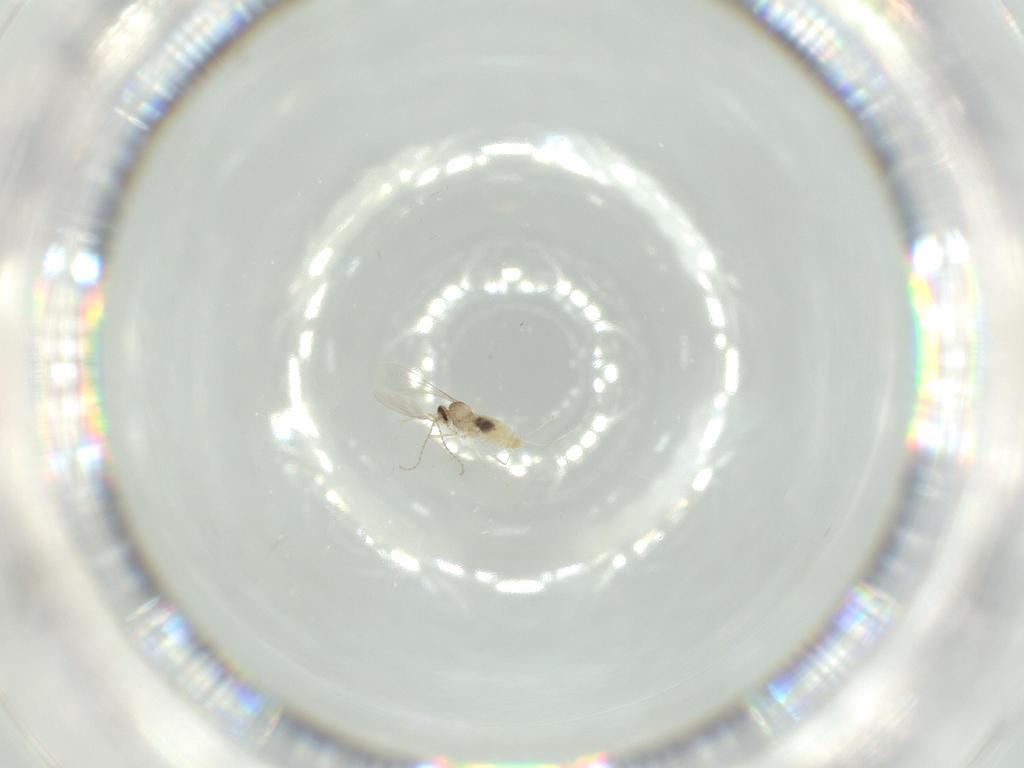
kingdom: Animalia
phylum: Arthropoda
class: Insecta
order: Diptera
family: Cecidomyiidae
